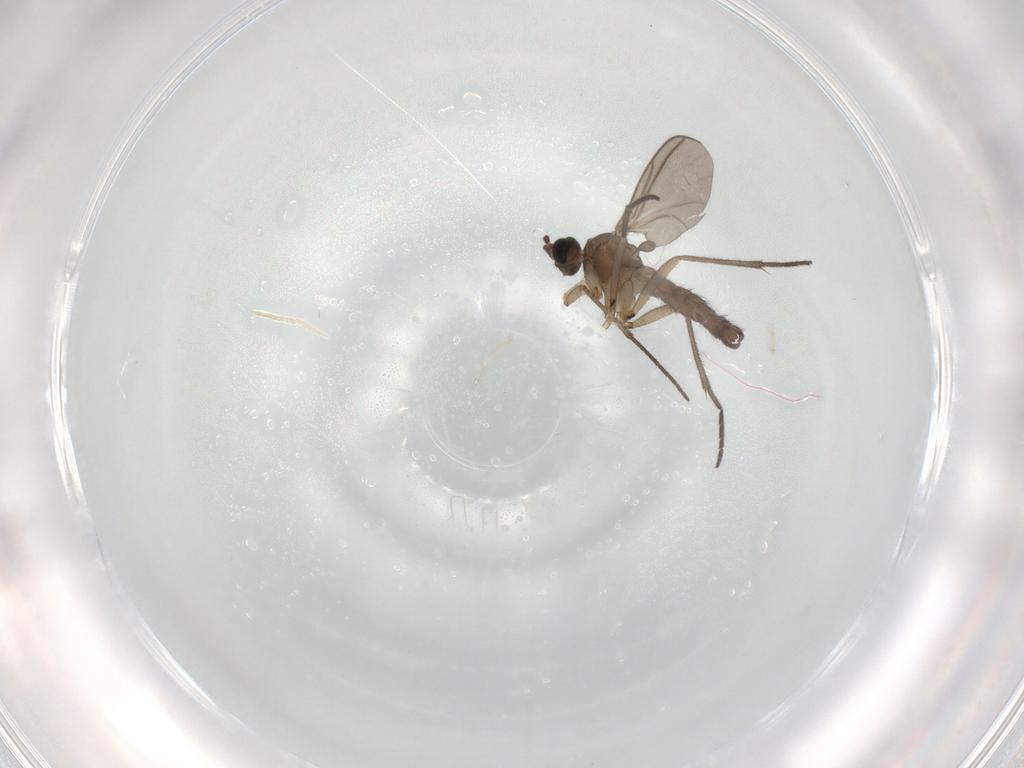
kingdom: Animalia
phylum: Arthropoda
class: Insecta
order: Diptera
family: Sciaridae
